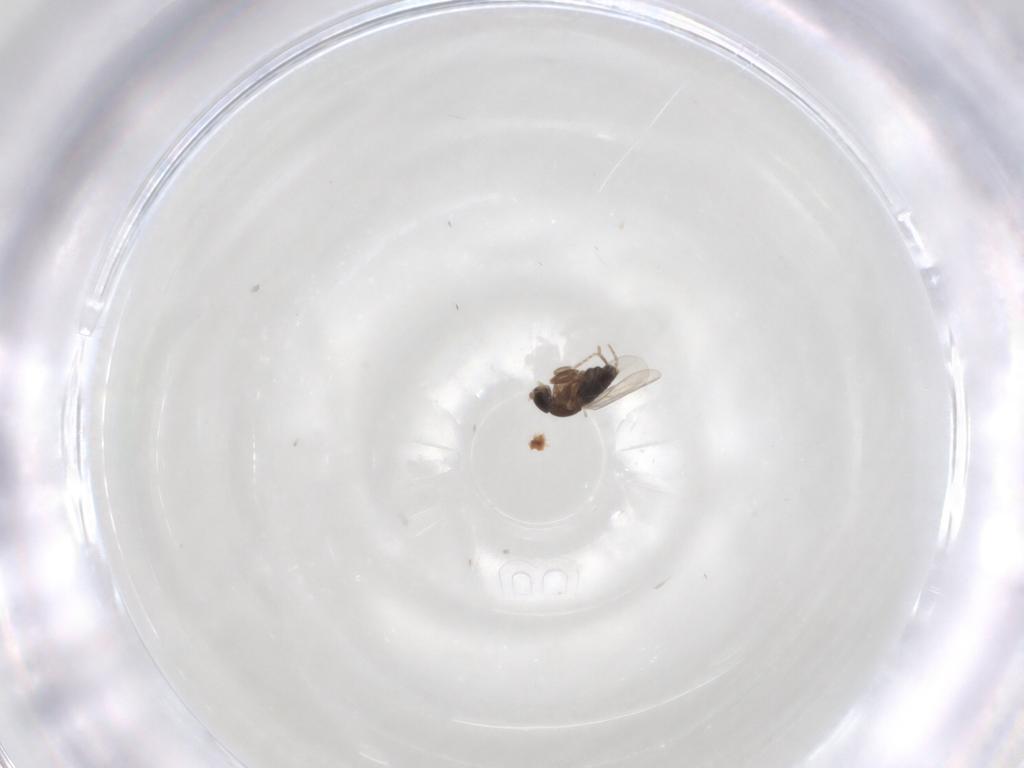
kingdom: Animalia
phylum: Arthropoda
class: Insecta
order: Diptera
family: Phoridae
